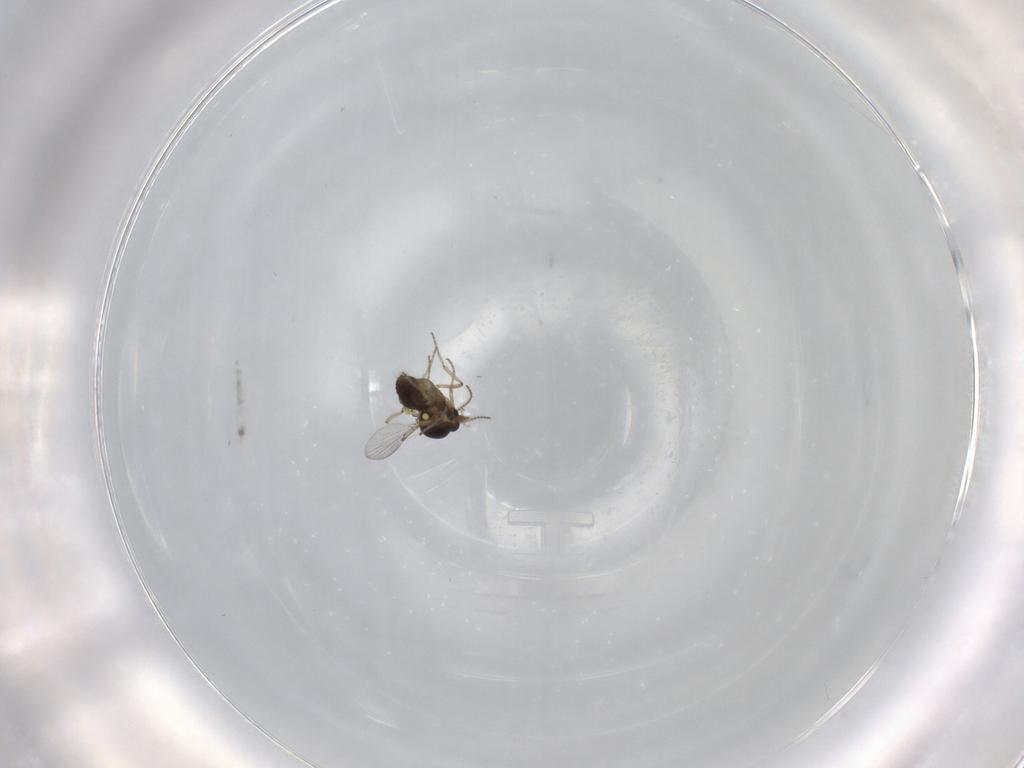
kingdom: Animalia
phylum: Arthropoda
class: Insecta
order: Diptera
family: Ceratopogonidae
